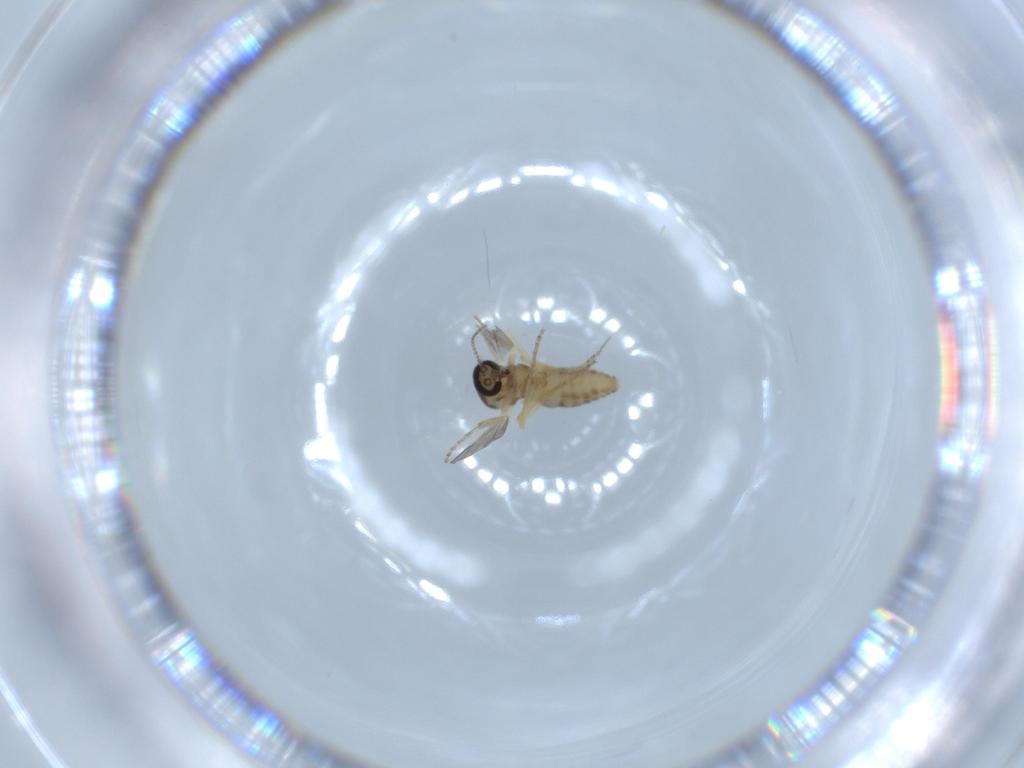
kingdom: Animalia
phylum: Arthropoda
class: Insecta
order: Diptera
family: Ceratopogonidae
